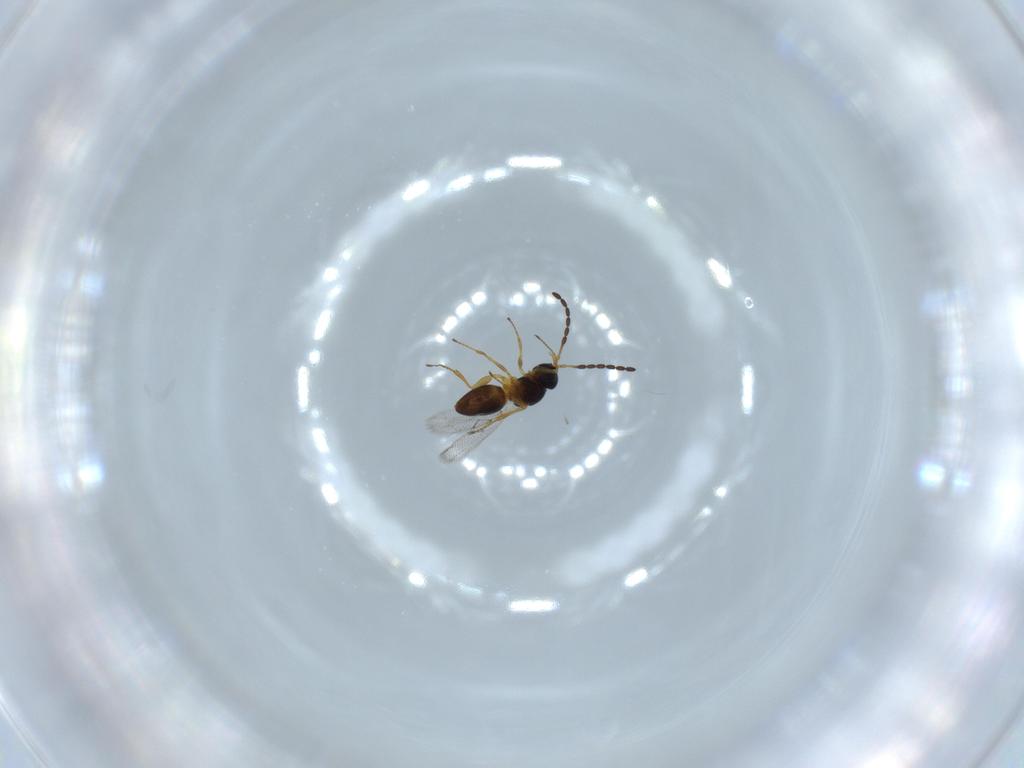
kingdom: Animalia
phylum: Arthropoda
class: Insecta
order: Hymenoptera
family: Figitidae
